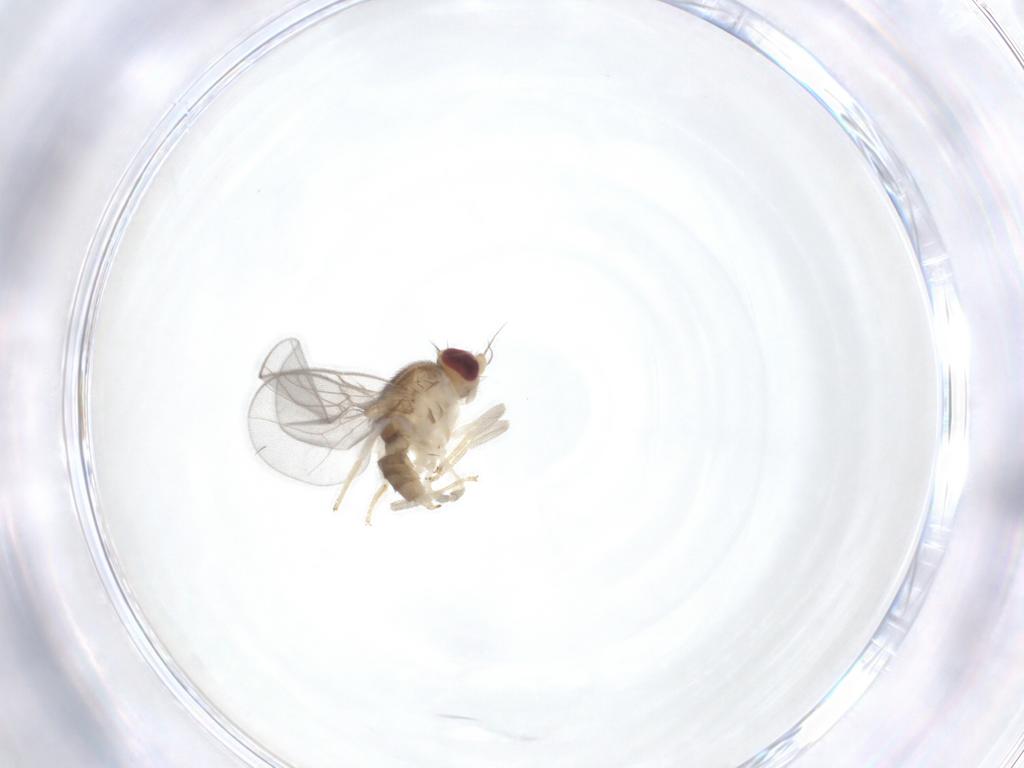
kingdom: Animalia
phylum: Arthropoda
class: Insecta
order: Diptera
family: Chloropidae
